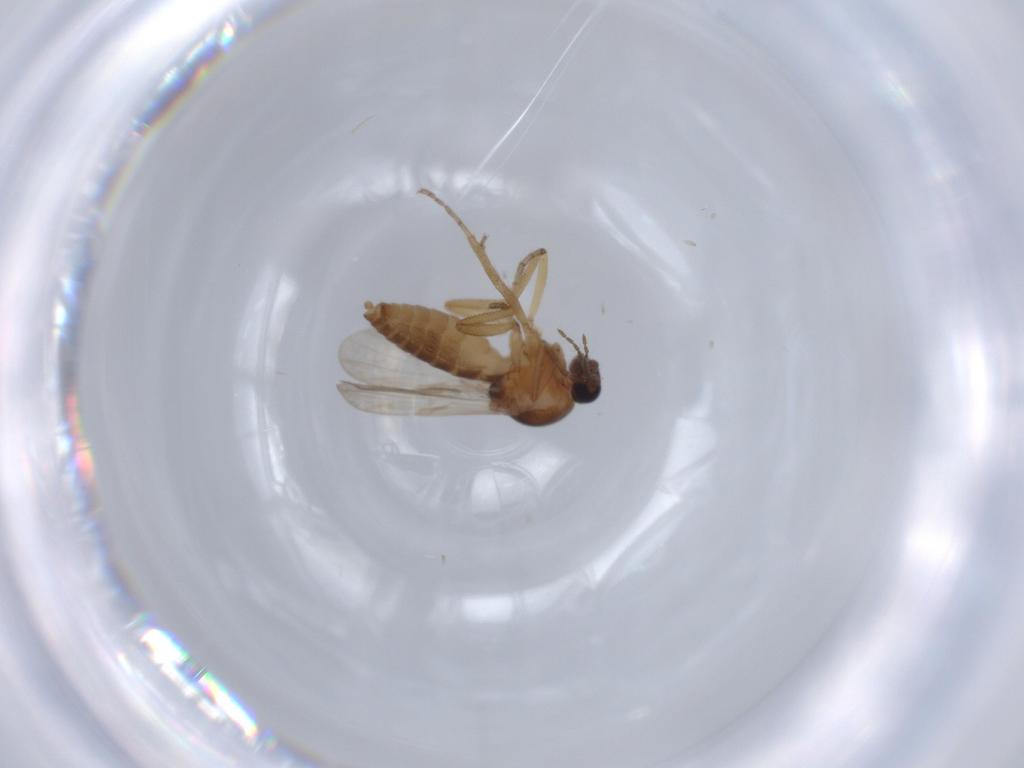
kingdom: Animalia
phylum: Arthropoda
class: Insecta
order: Diptera
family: Ceratopogonidae
